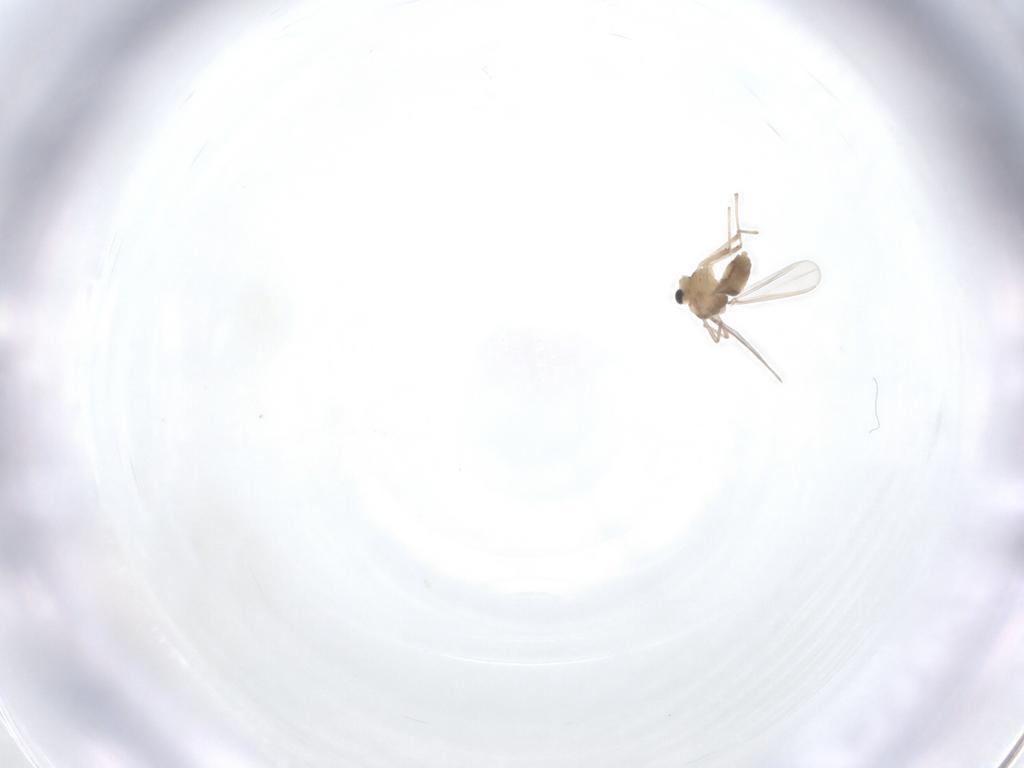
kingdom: Animalia
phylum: Arthropoda
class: Insecta
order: Diptera
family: Chironomidae
